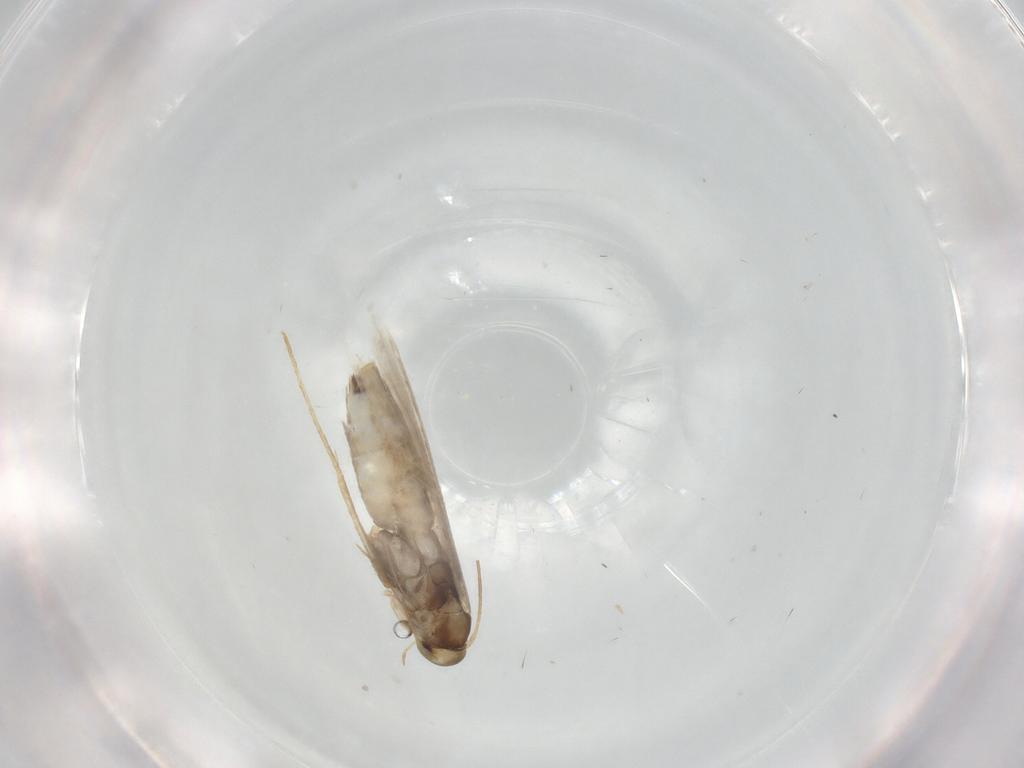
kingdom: Animalia
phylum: Arthropoda
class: Insecta
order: Lepidoptera
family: Gracillariidae
